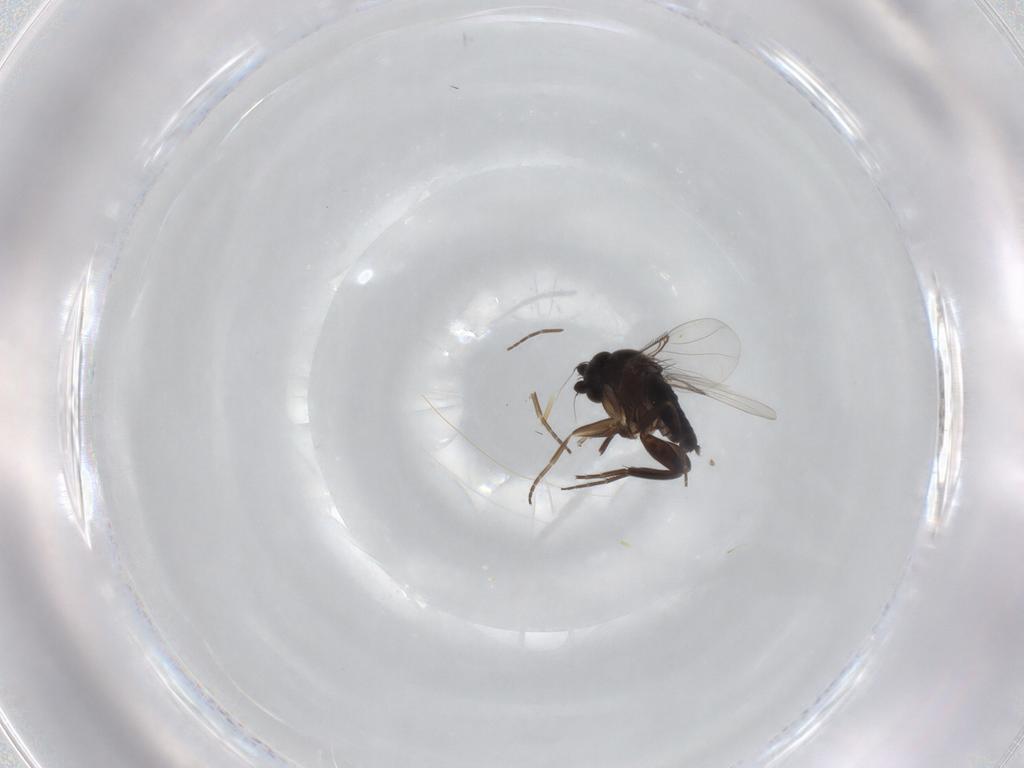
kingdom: Animalia
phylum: Arthropoda
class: Insecta
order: Diptera
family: Phoridae
